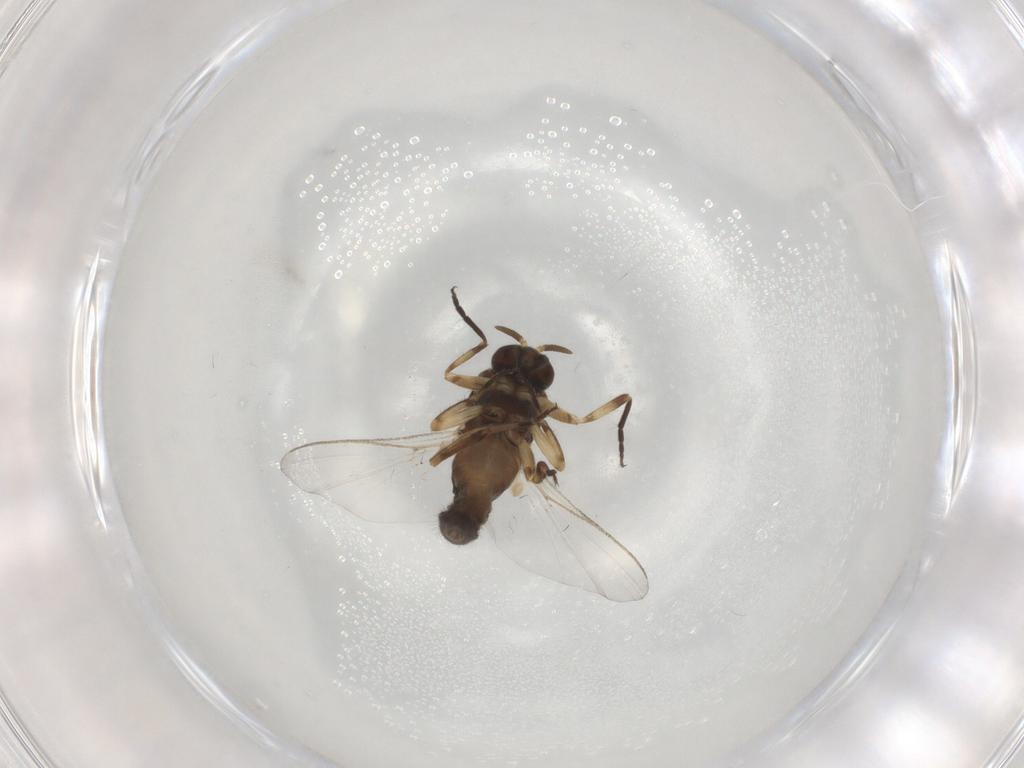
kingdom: Animalia
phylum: Arthropoda
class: Insecta
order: Diptera
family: Simuliidae
